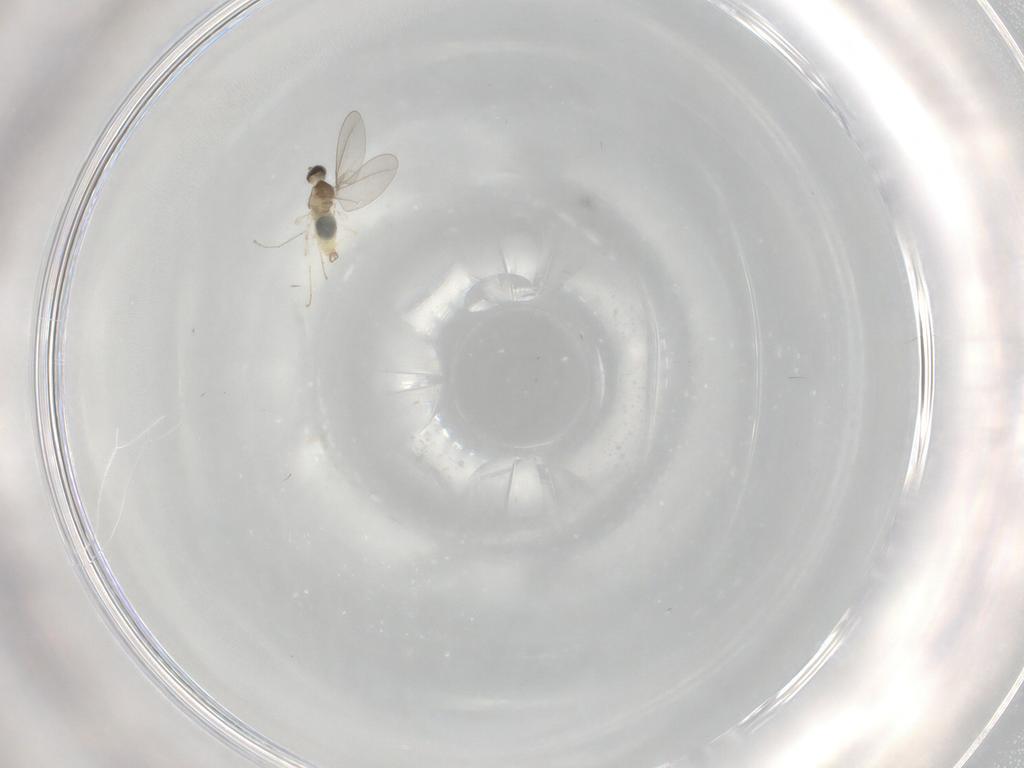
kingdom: Animalia
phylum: Arthropoda
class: Insecta
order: Diptera
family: Cecidomyiidae
